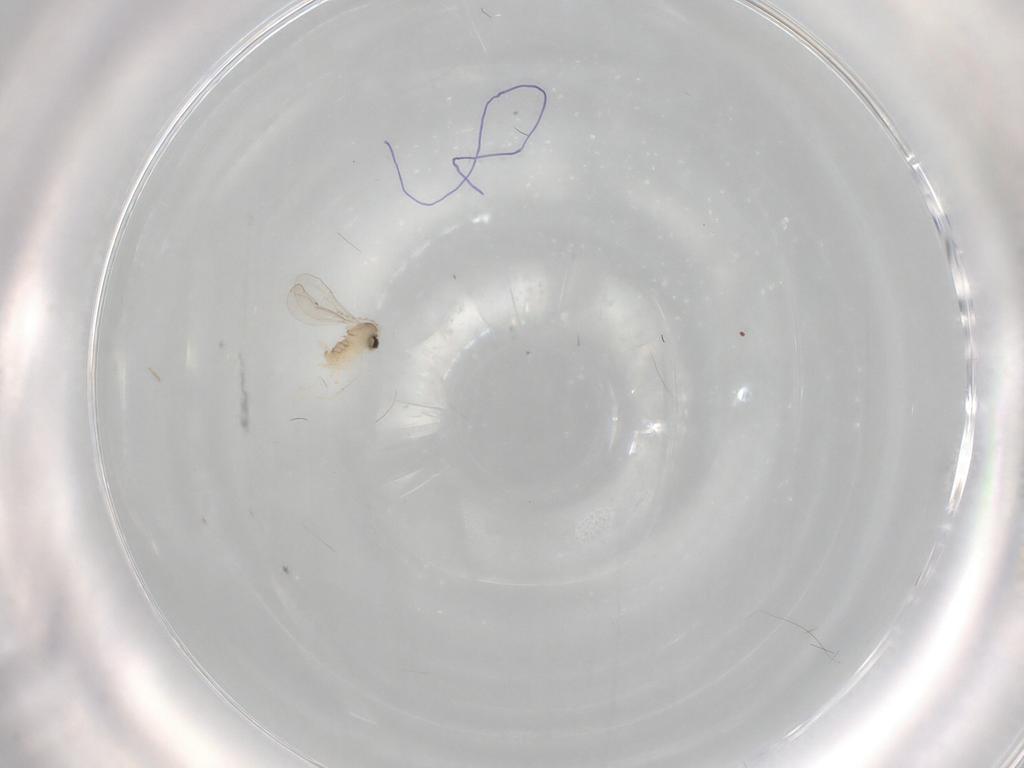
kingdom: Animalia
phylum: Arthropoda
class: Insecta
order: Diptera
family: Cecidomyiidae
